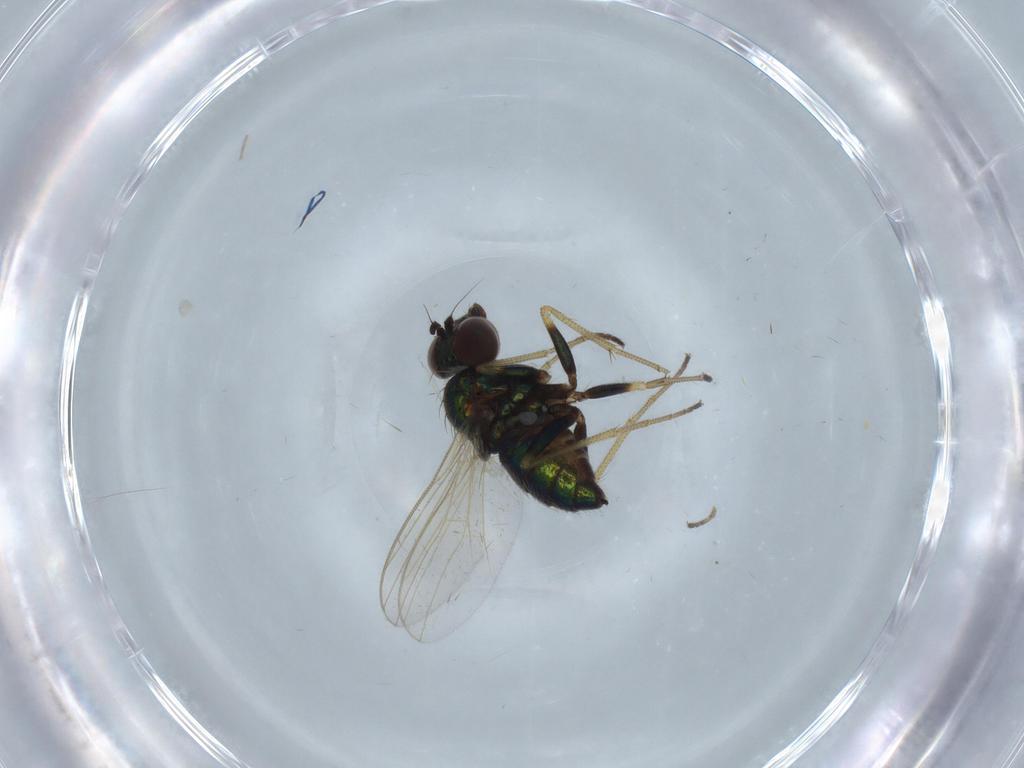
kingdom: Animalia
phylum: Arthropoda
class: Insecta
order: Diptera
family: Dolichopodidae
